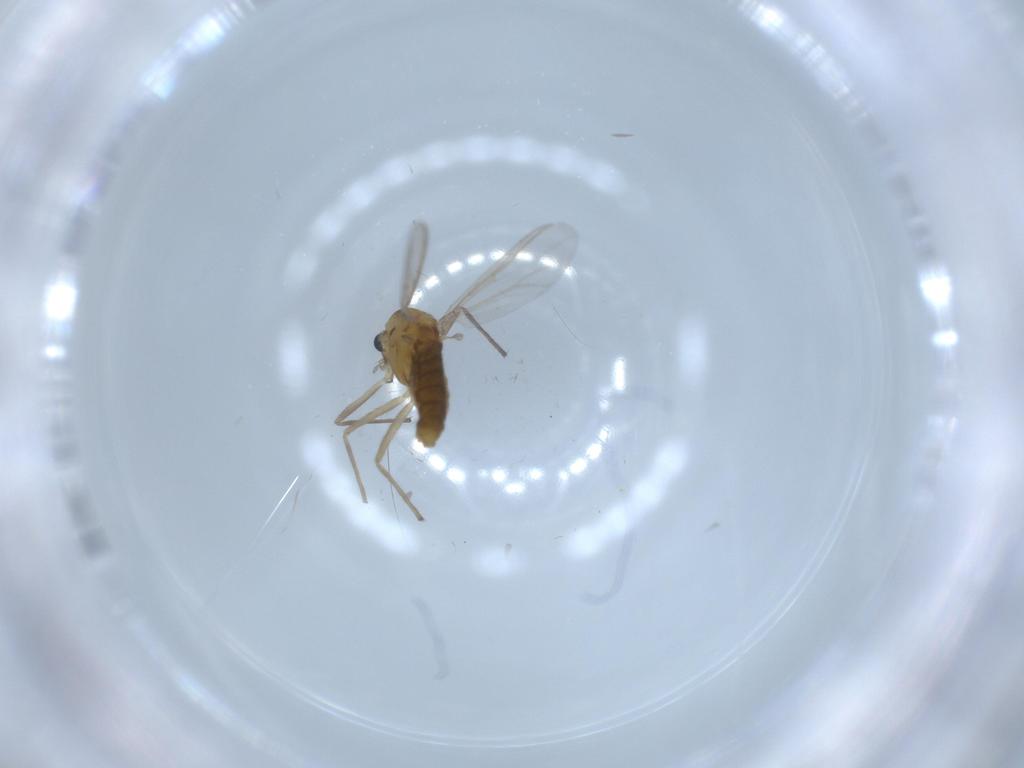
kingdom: Animalia
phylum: Arthropoda
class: Insecta
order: Diptera
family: Chironomidae
